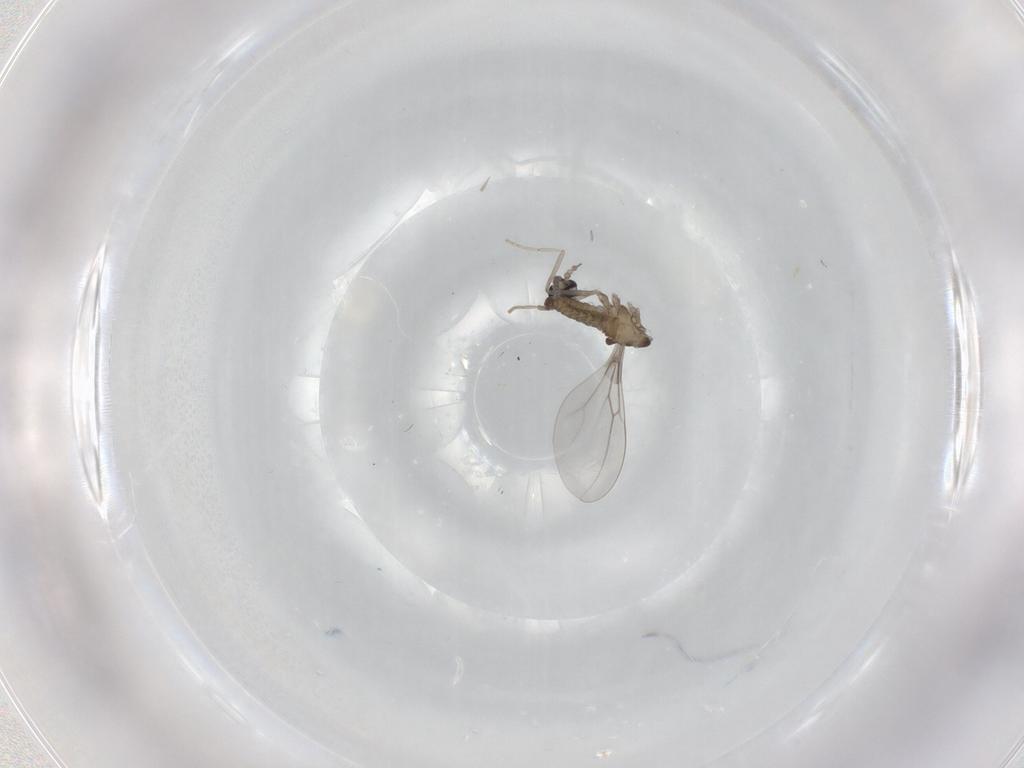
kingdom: Animalia
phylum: Arthropoda
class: Insecta
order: Diptera
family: Cecidomyiidae
